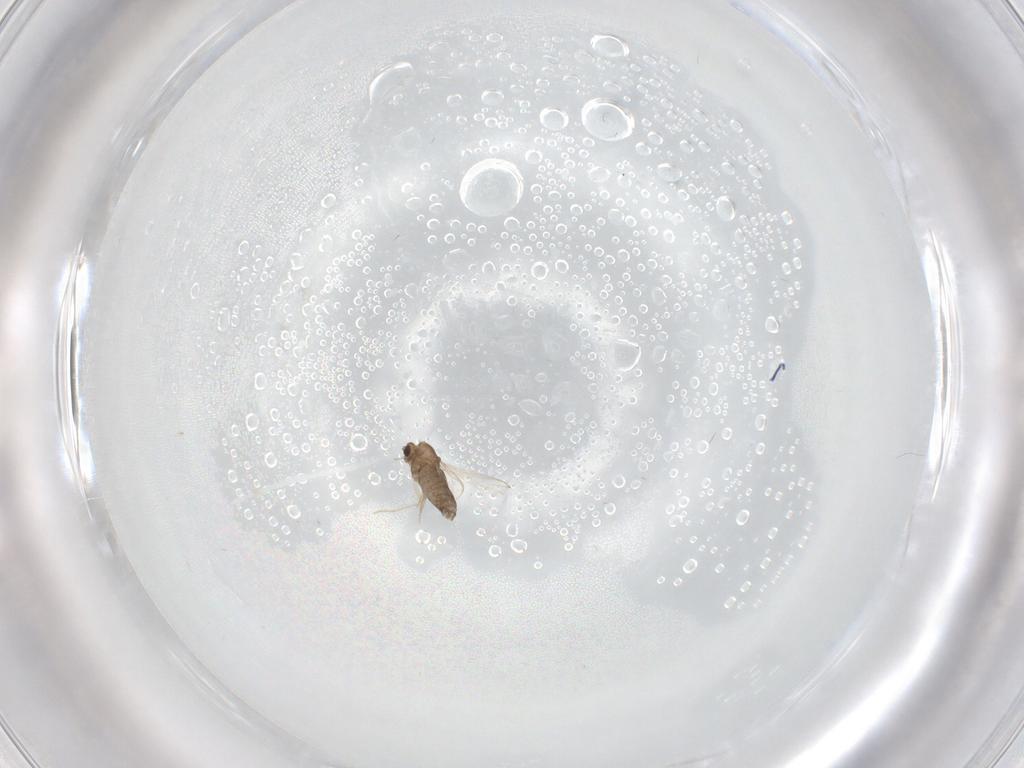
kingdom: Animalia
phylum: Arthropoda
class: Insecta
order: Diptera
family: Chironomidae
